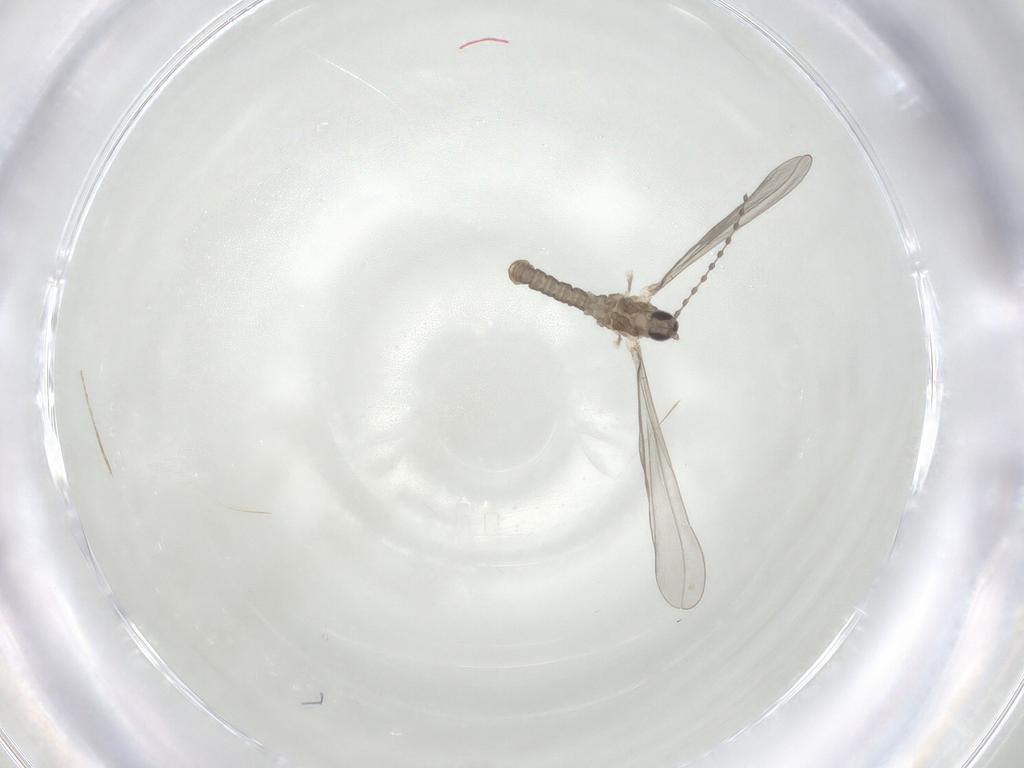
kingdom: Animalia
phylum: Arthropoda
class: Insecta
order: Diptera
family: Cecidomyiidae
